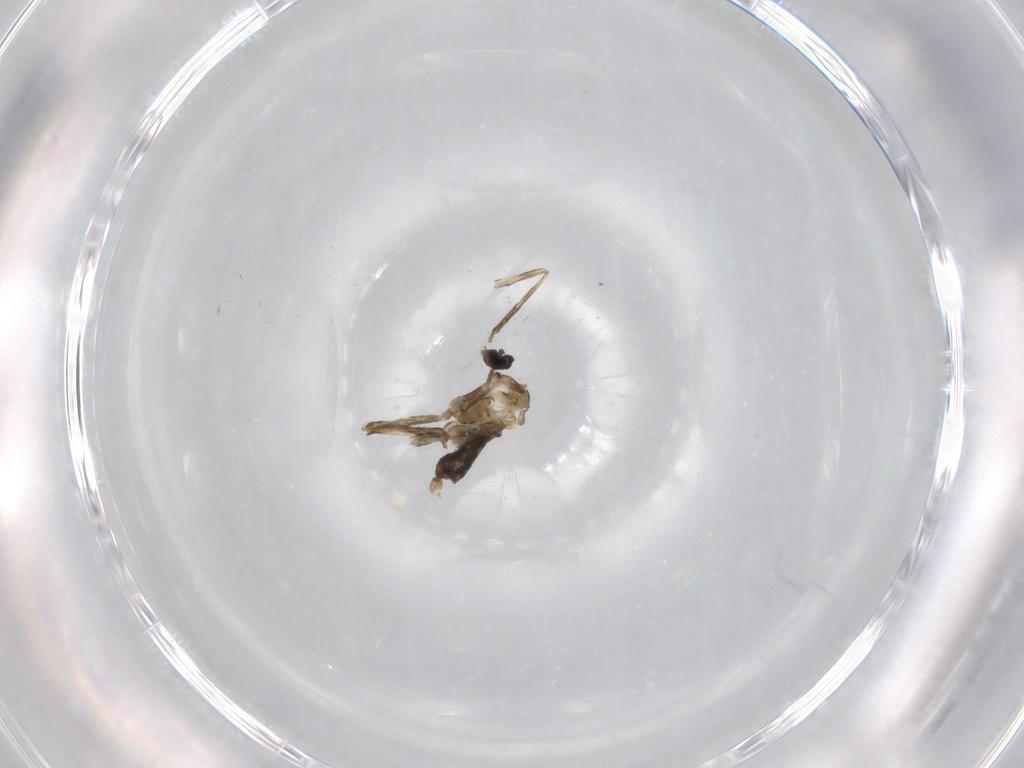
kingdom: Animalia
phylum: Arthropoda
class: Insecta
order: Diptera
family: Cecidomyiidae
